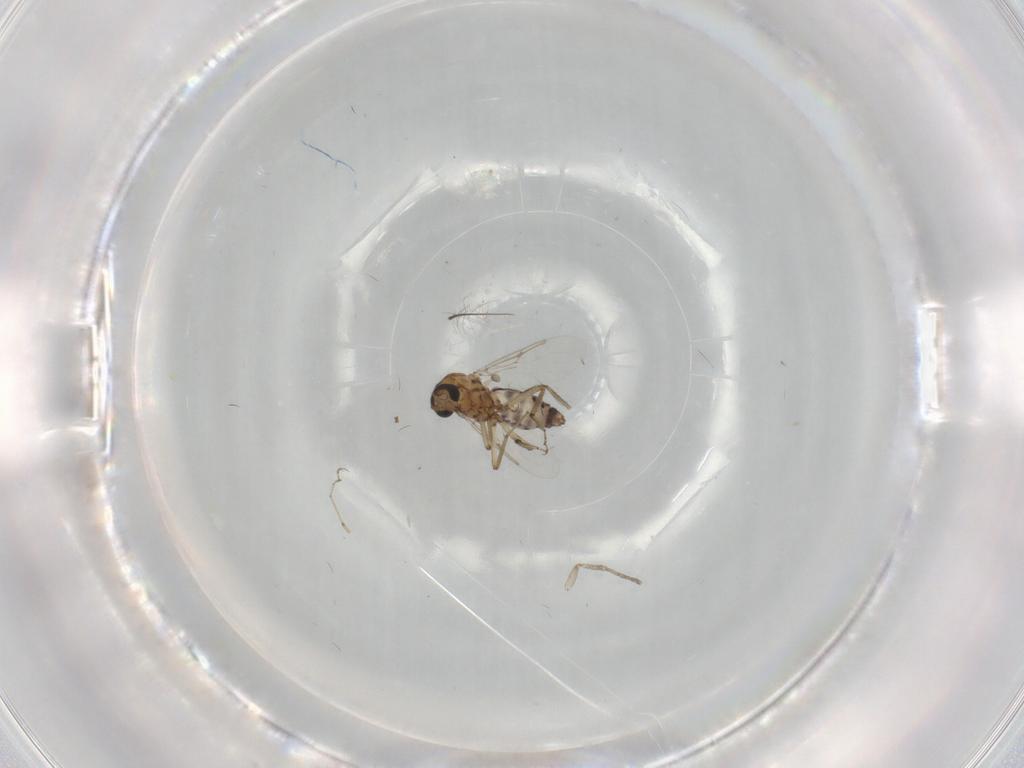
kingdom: Animalia
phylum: Arthropoda
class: Insecta
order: Diptera
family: Ceratopogonidae
